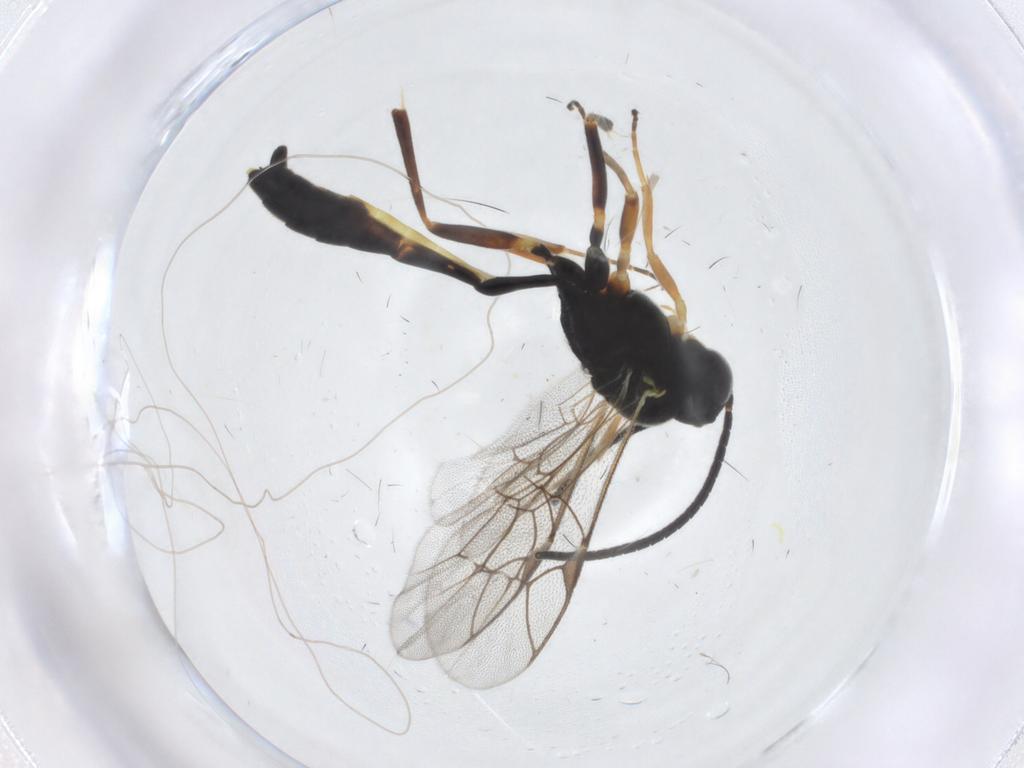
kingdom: Animalia
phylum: Arthropoda
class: Insecta
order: Hymenoptera
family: Ichneumonidae
